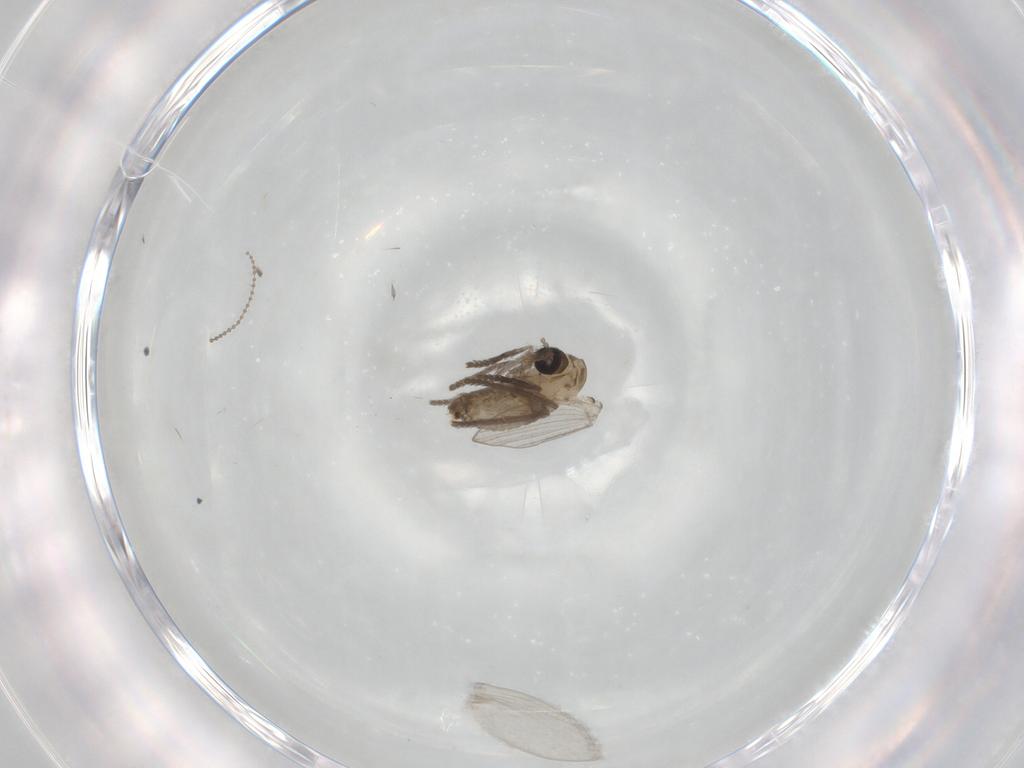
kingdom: Animalia
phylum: Arthropoda
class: Insecta
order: Diptera
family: Psychodidae
